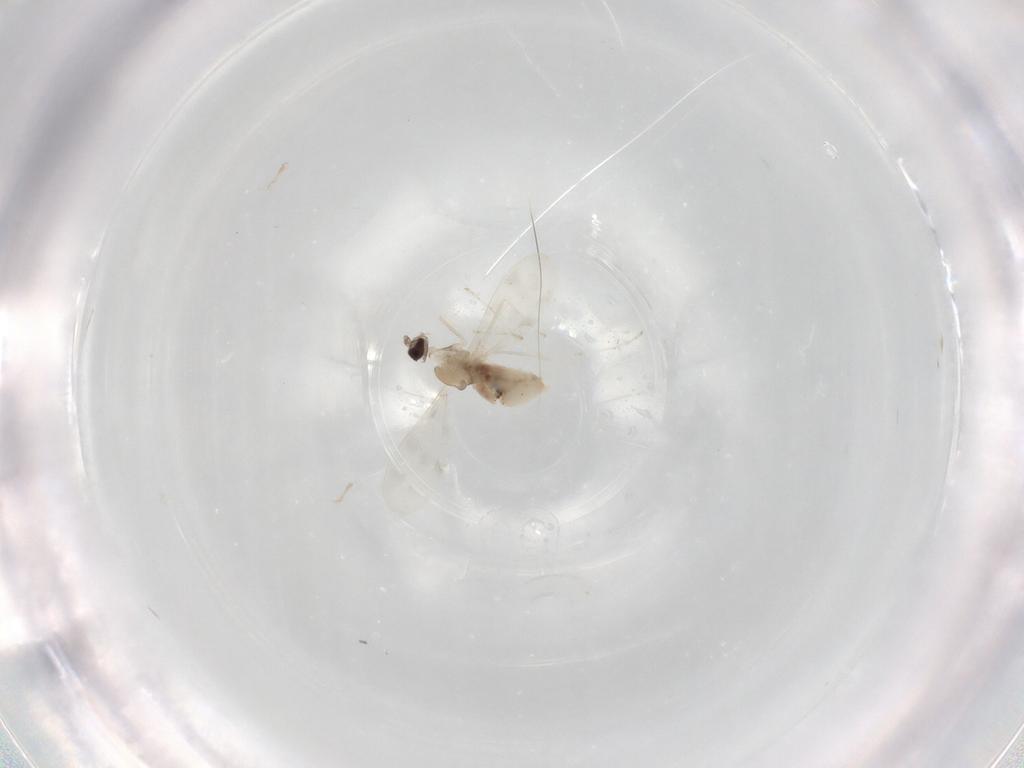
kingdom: Animalia
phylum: Arthropoda
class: Insecta
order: Diptera
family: Cecidomyiidae
